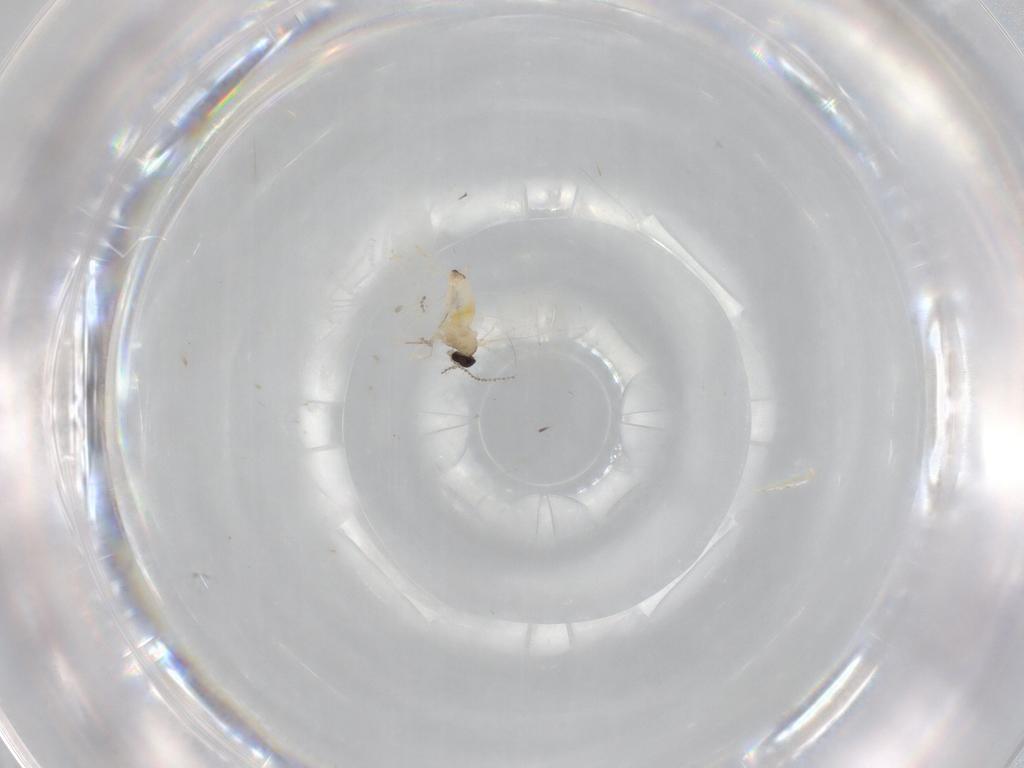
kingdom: Animalia
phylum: Arthropoda
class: Insecta
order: Diptera
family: Cecidomyiidae
